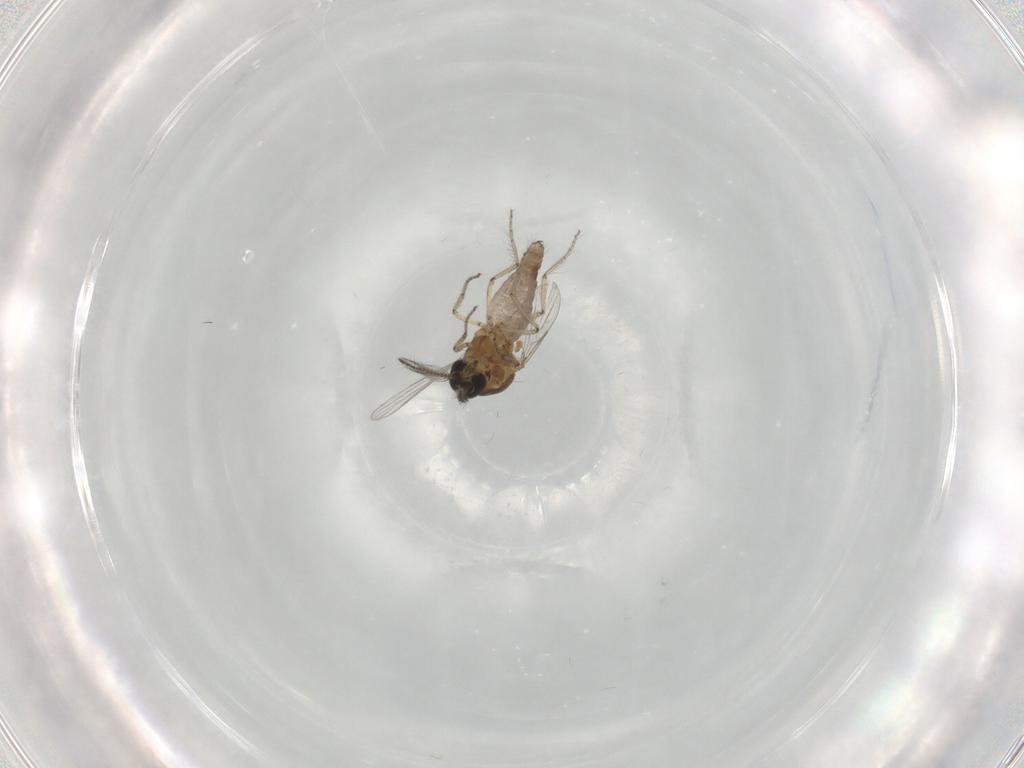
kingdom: Animalia
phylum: Arthropoda
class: Insecta
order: Diptera
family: Ceratopogonidae
